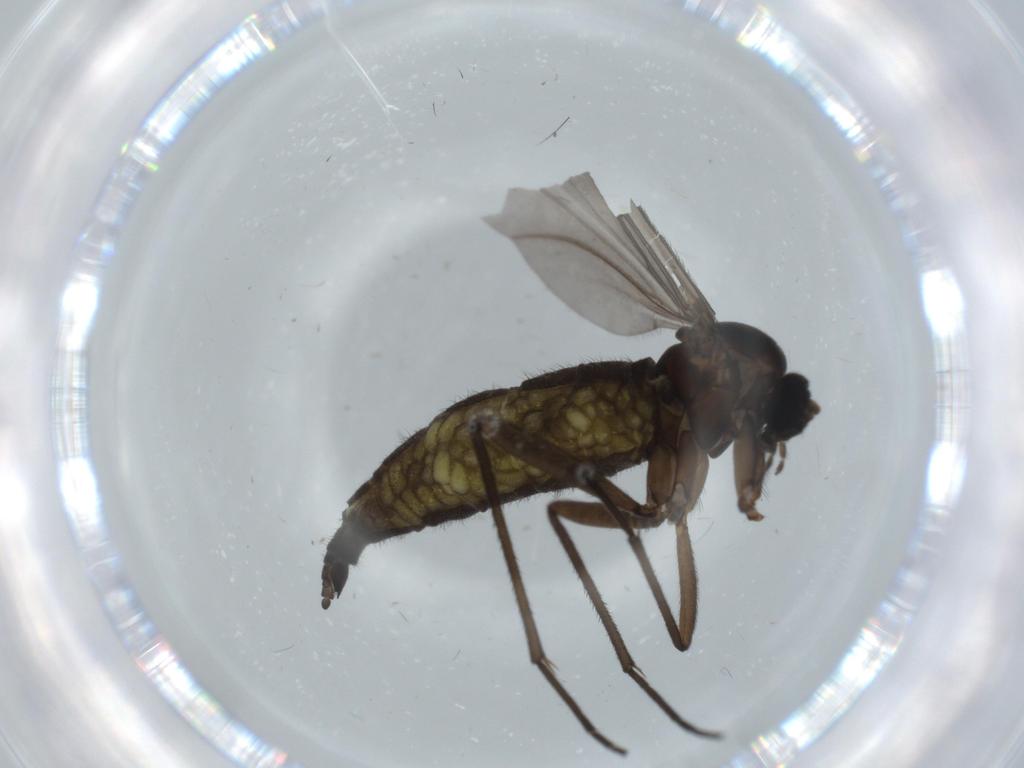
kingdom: Animalia
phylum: Arthropoda
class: Insecta
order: Diptera
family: Sciaridae
